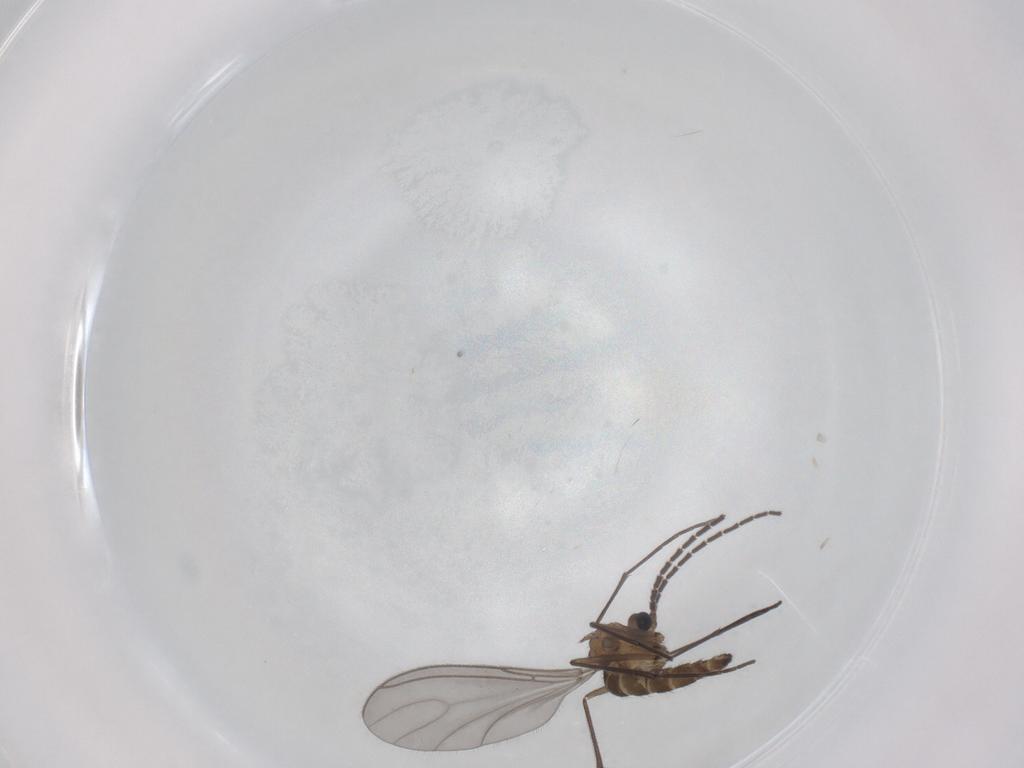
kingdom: Animalia
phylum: Arthropoda
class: Insecta
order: Diptera
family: Sciaridae
